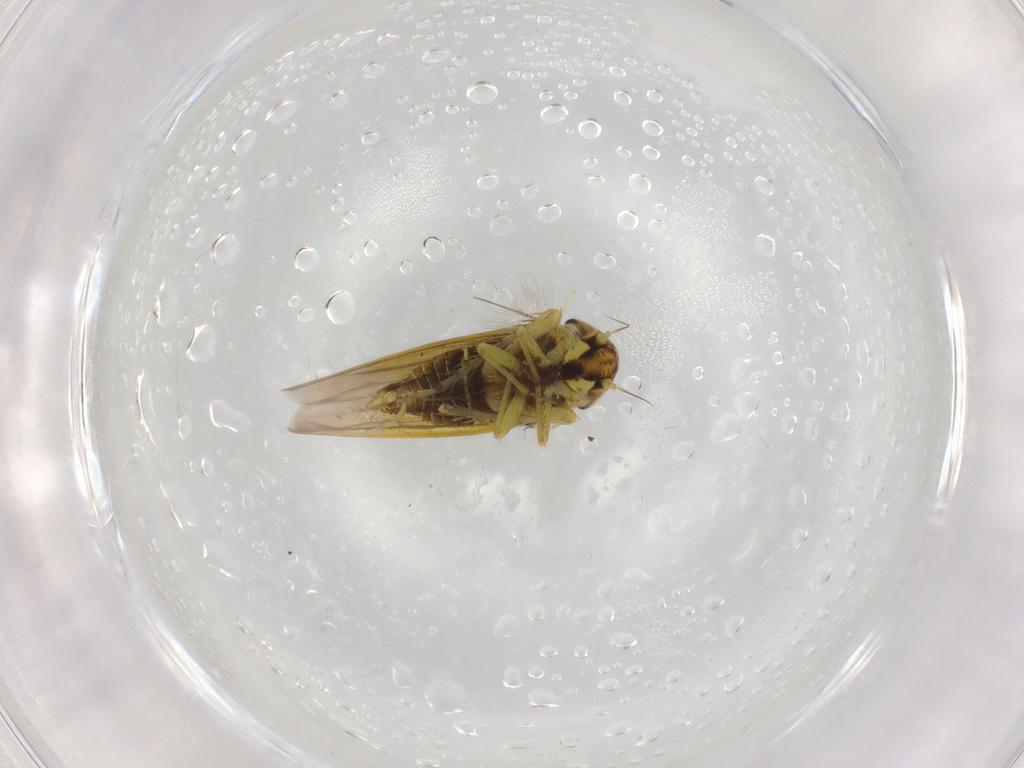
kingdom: Animalia
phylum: Arthropoda
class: Insecta
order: Hemiptera
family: Cicadellidae
